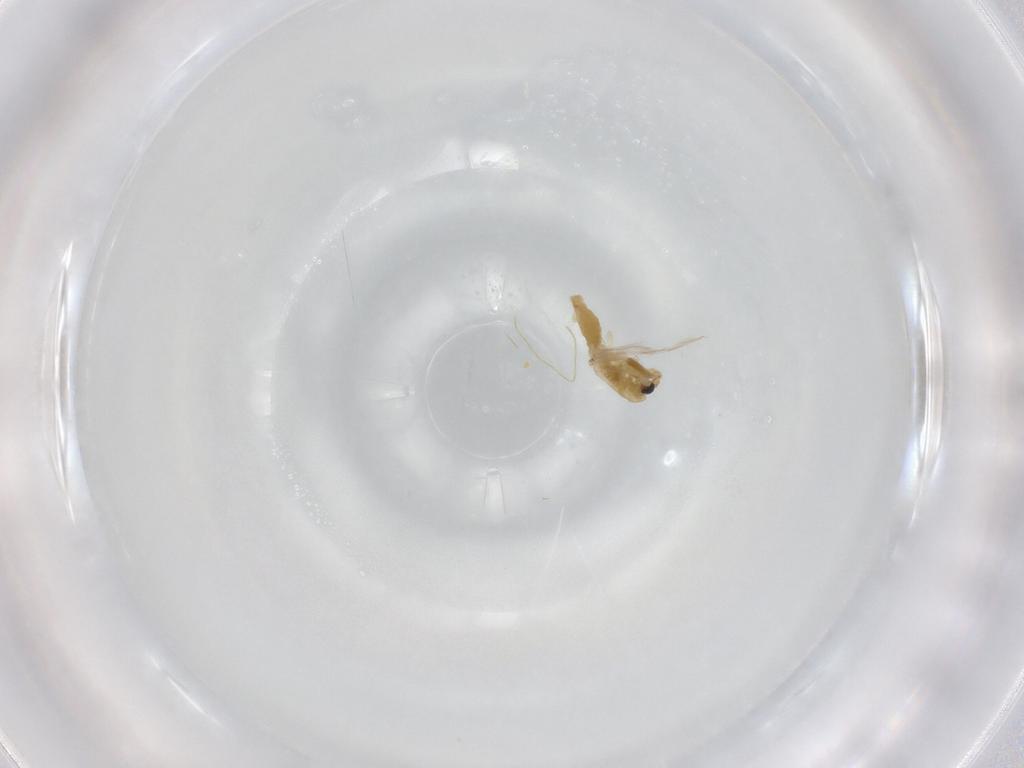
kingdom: Animalia
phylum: Arthropoda
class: Insecta
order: Diptera
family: Chironomidae
